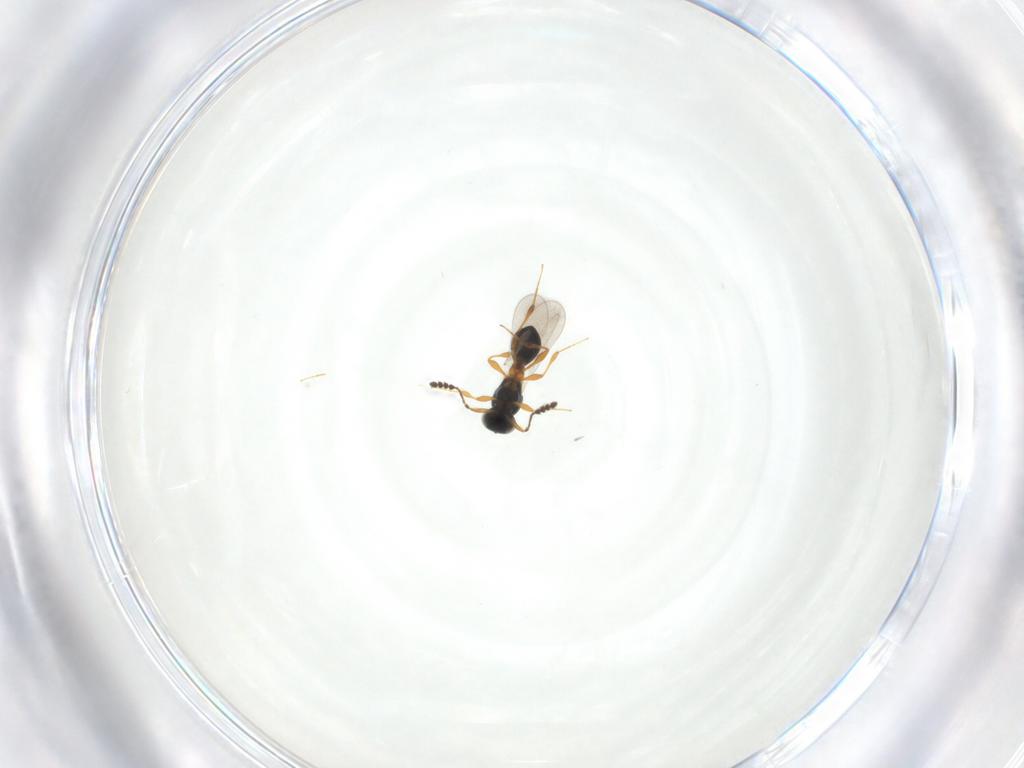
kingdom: Animalia
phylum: Arthropoda
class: Insecta
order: Hymenoptera
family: Platygastridae
